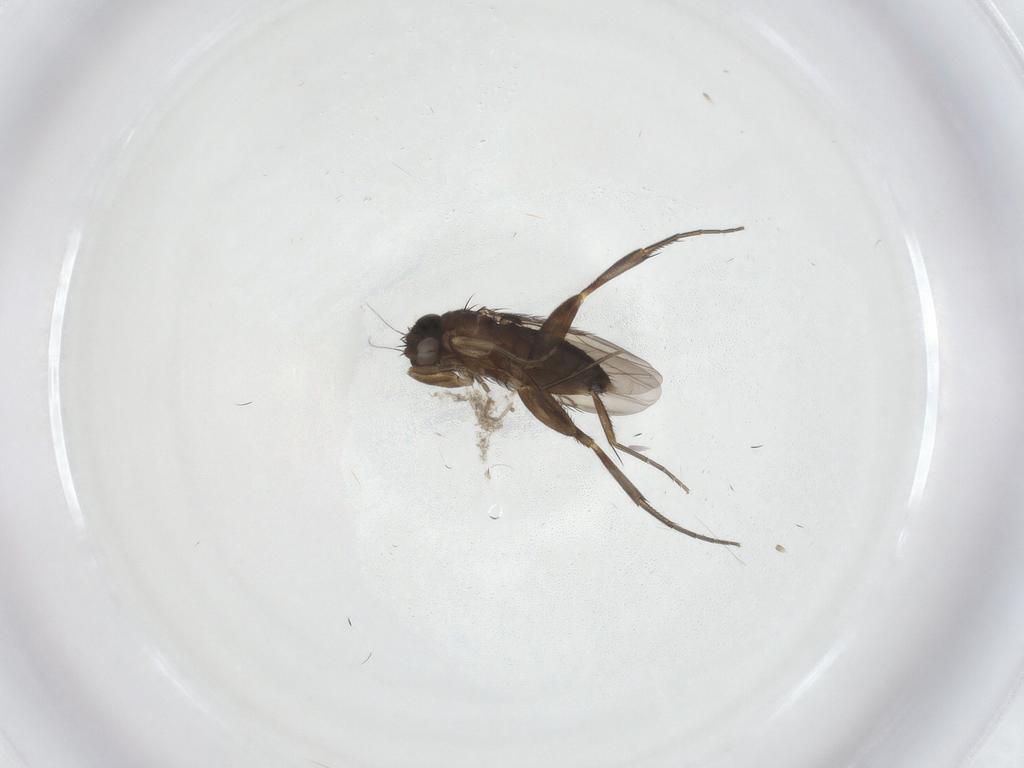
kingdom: Animalia
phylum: Arthropoda
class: Insecta
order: Diptera
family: Phoridae
